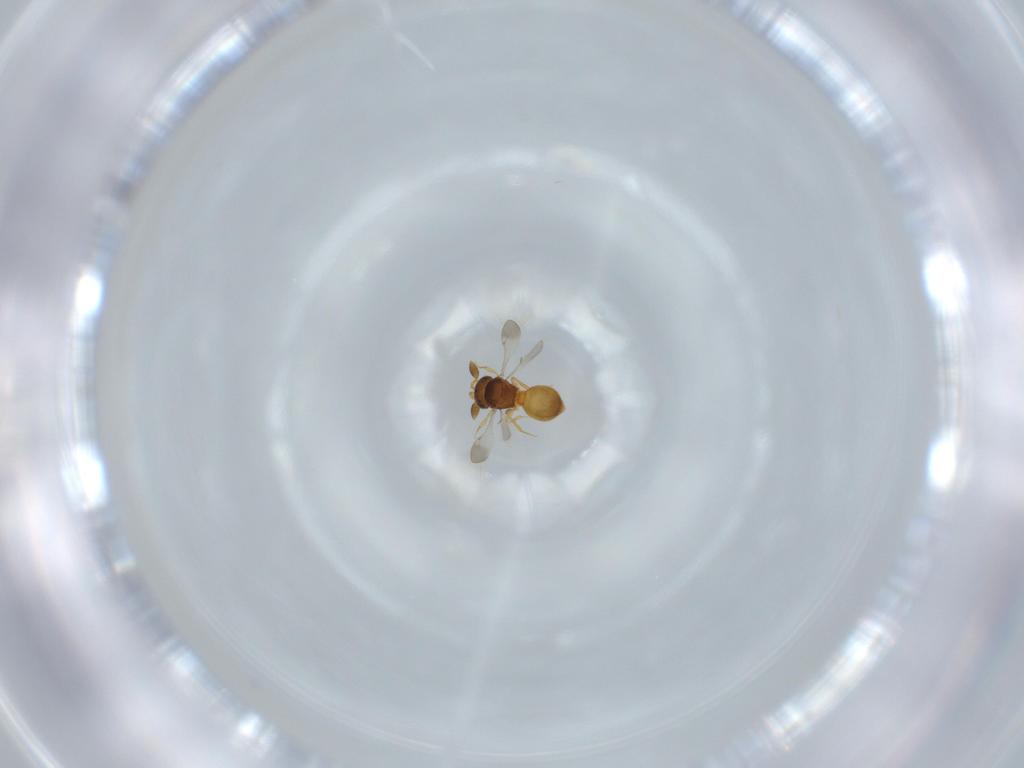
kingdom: Animalia
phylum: Arthropoda
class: Insecta
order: Hymenoptera
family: Scelionidae
